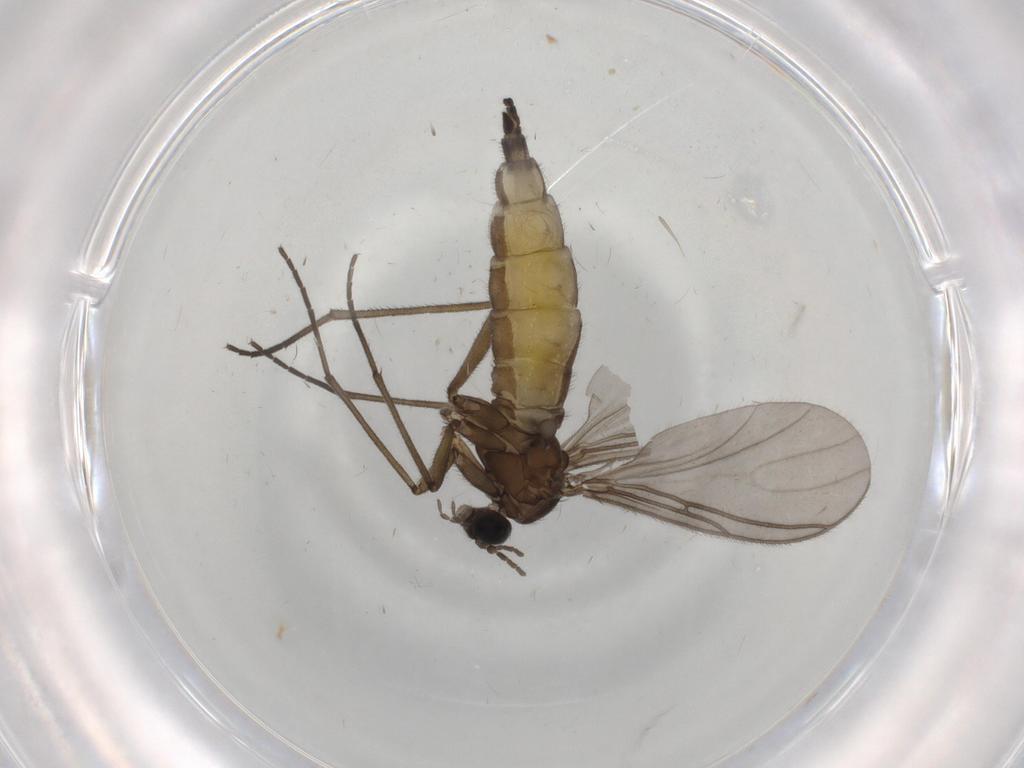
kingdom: Animalia
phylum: Arthropoda
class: Insecta
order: Diptera
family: Sciaridae
